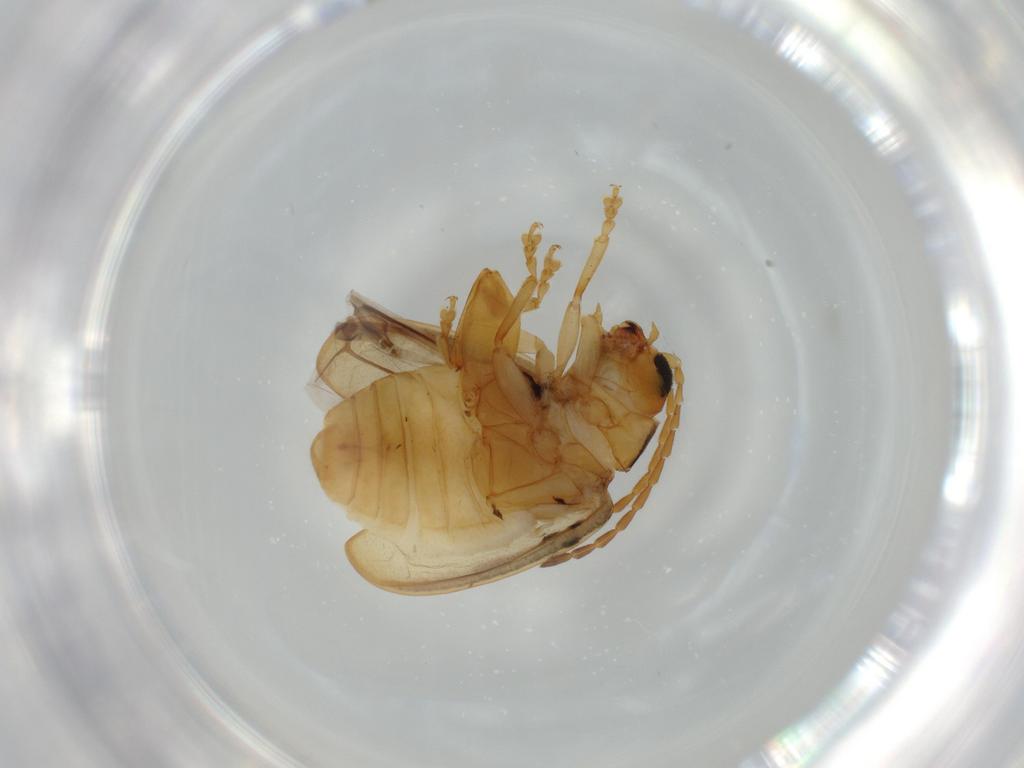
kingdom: Animalia
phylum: Arthropoda
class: Insecta
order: Coleoptera
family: Chrysomelidae
